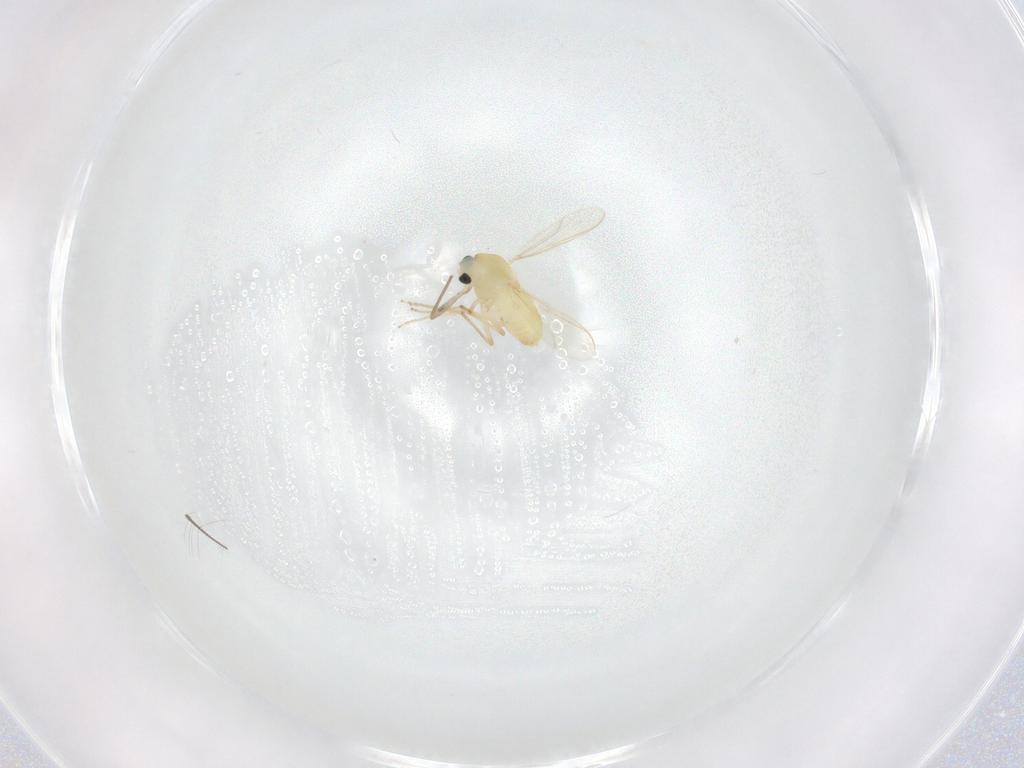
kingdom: Animalia
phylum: Arthropoda
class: Insecta
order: Diptera
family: Chironomidae
